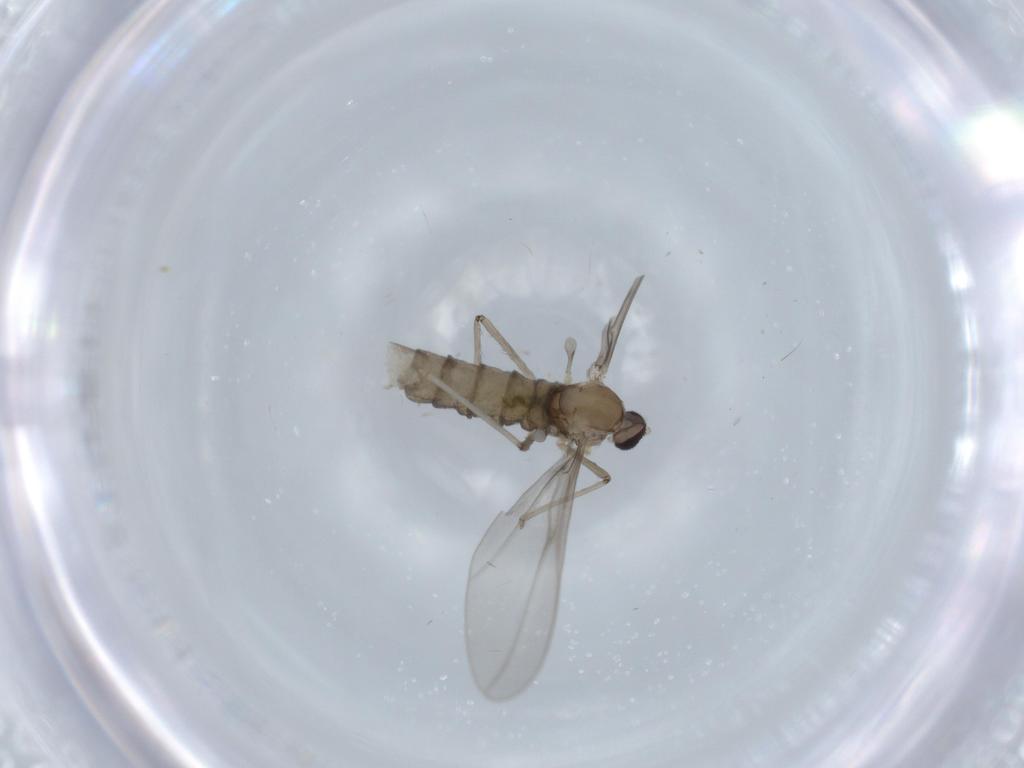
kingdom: Animalia
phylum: Arthropoda
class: Insecta
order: Diptera
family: Cecidomyiidae
